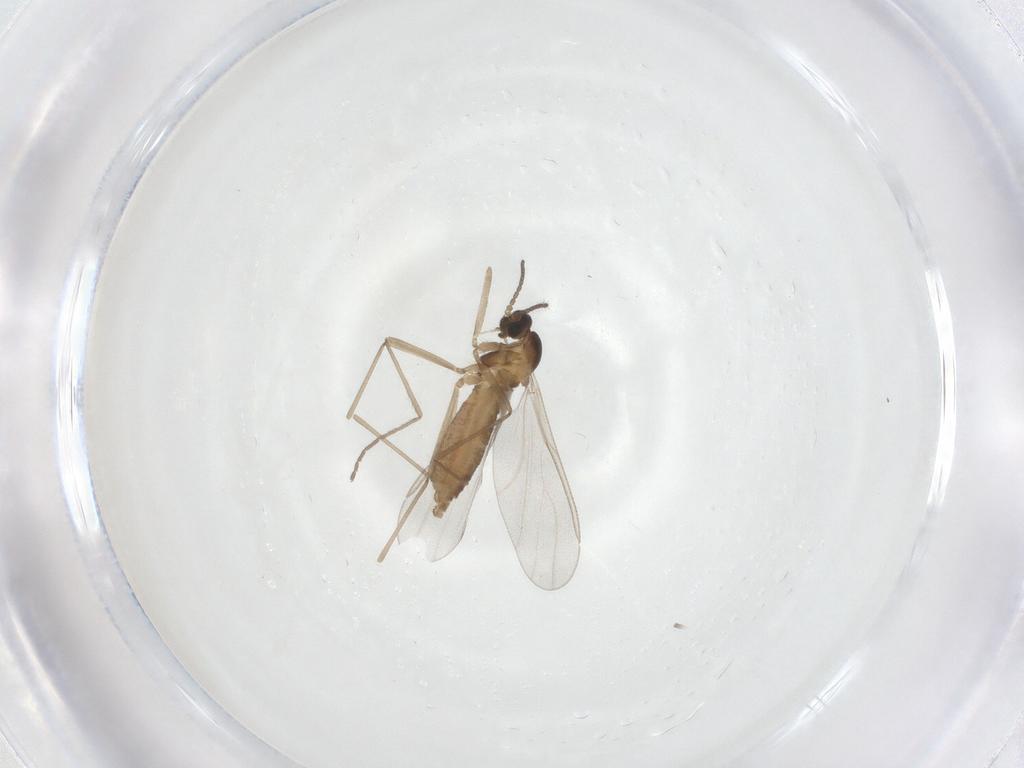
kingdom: Animalia
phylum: Arthropoda
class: Insecta
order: Diptera
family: Cecidomyiidae
